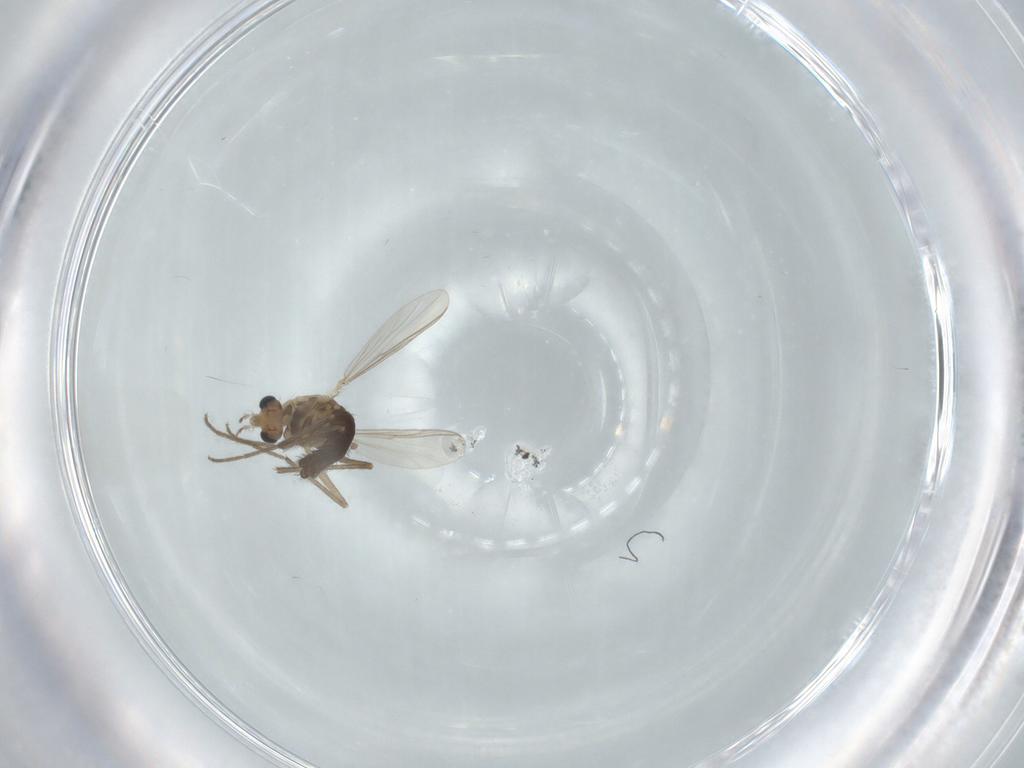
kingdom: Animalia
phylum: Arthropoda
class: Insecta
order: Diptera
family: Chironomidae
